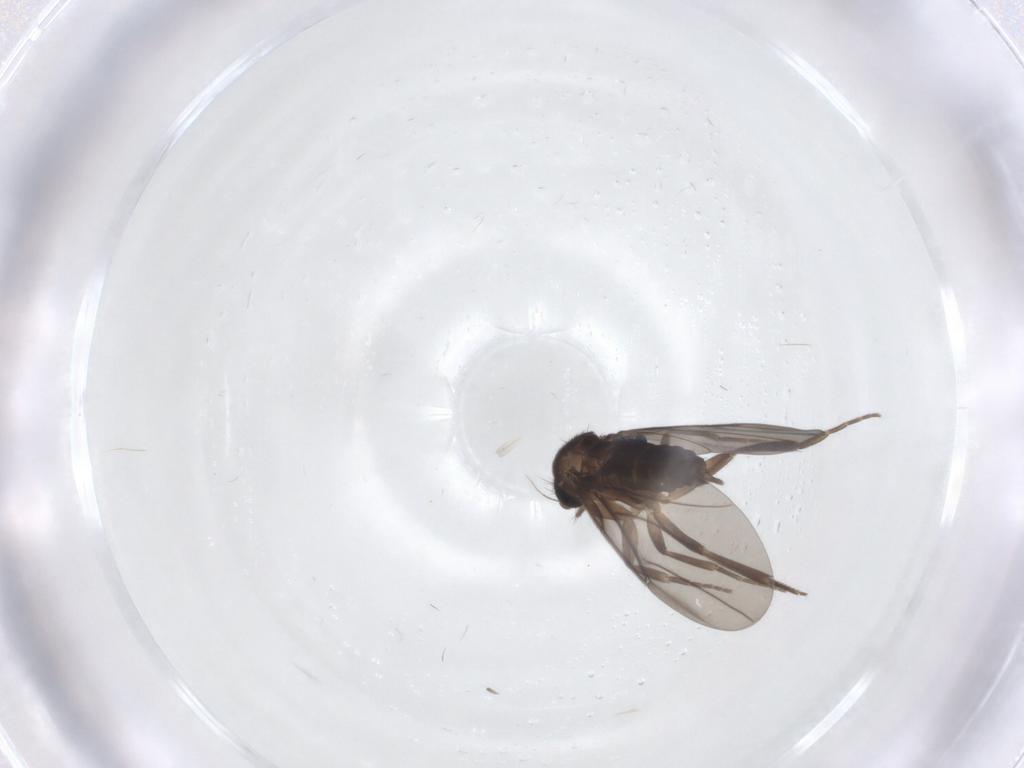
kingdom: Animalia
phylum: Arthropoda
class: Insecta
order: Diptera
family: Phoridae
